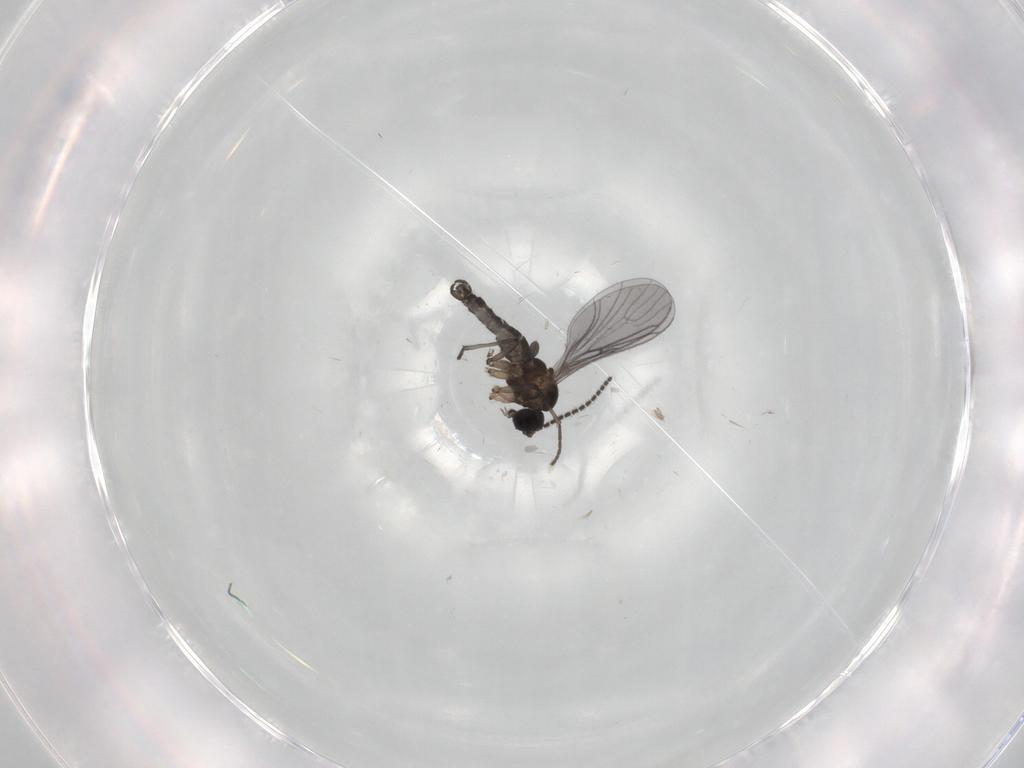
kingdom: Animalia
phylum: Arthropoda
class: Insecta
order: Diptera
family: Sciaridae
